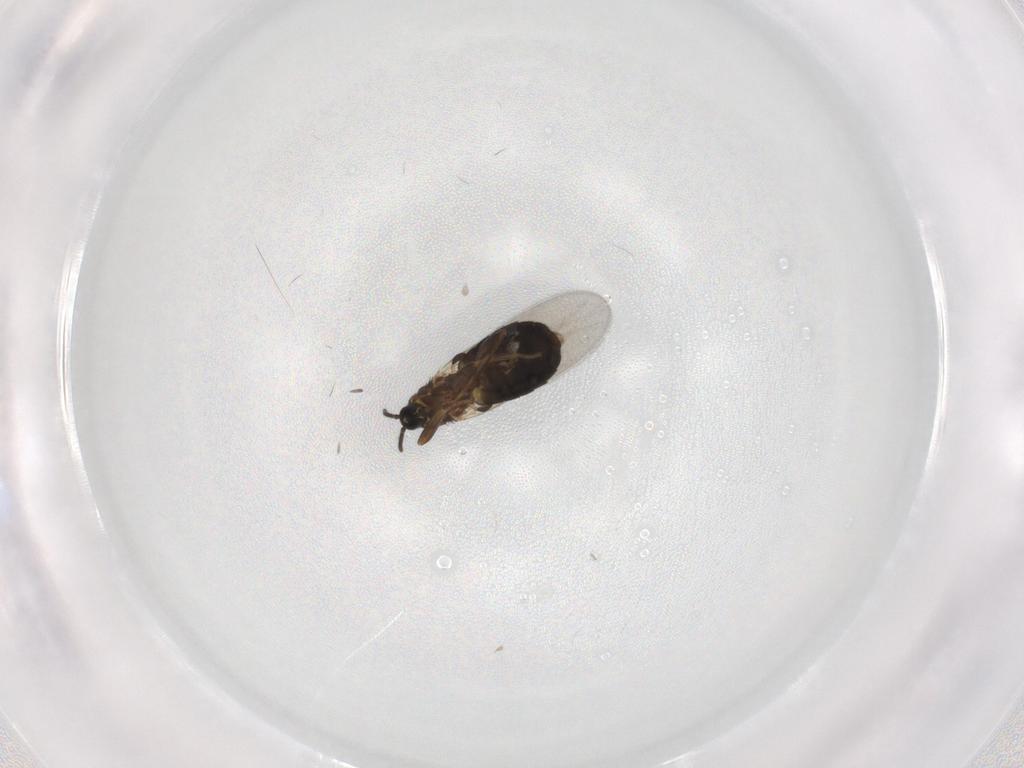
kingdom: Animalia
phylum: Arthropoda
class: Insecta
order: Diptera
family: Scatopsidae
